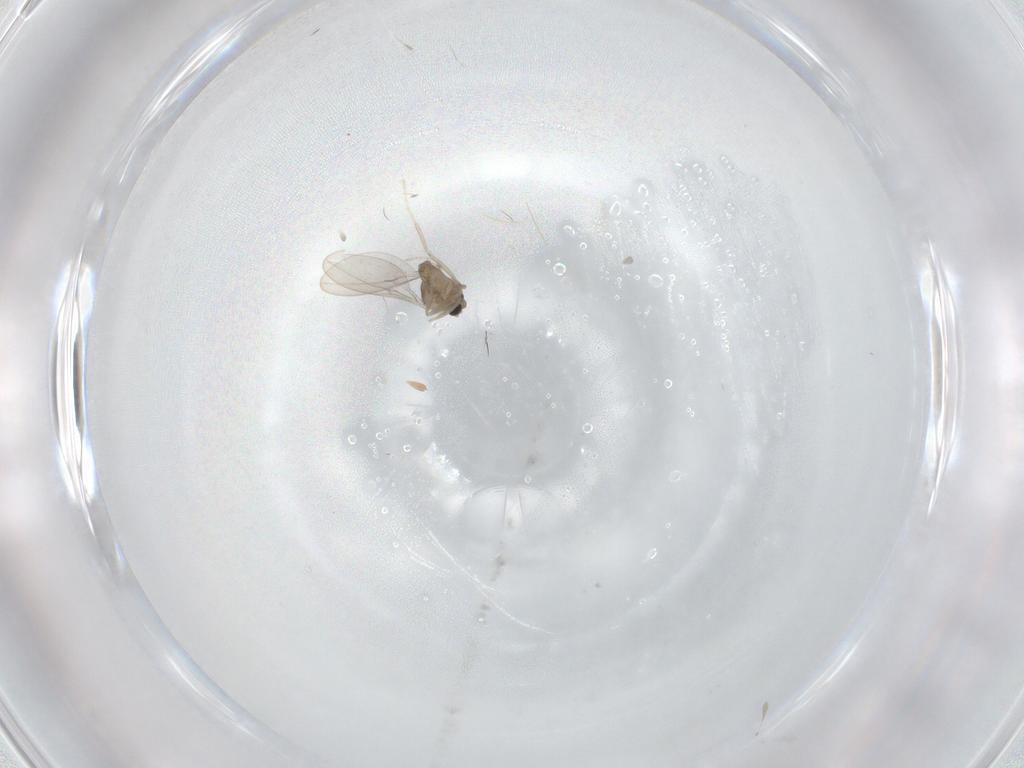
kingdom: Animalia
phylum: Arthropoda
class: Insecta
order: Diptera
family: Cecidomyiidae
